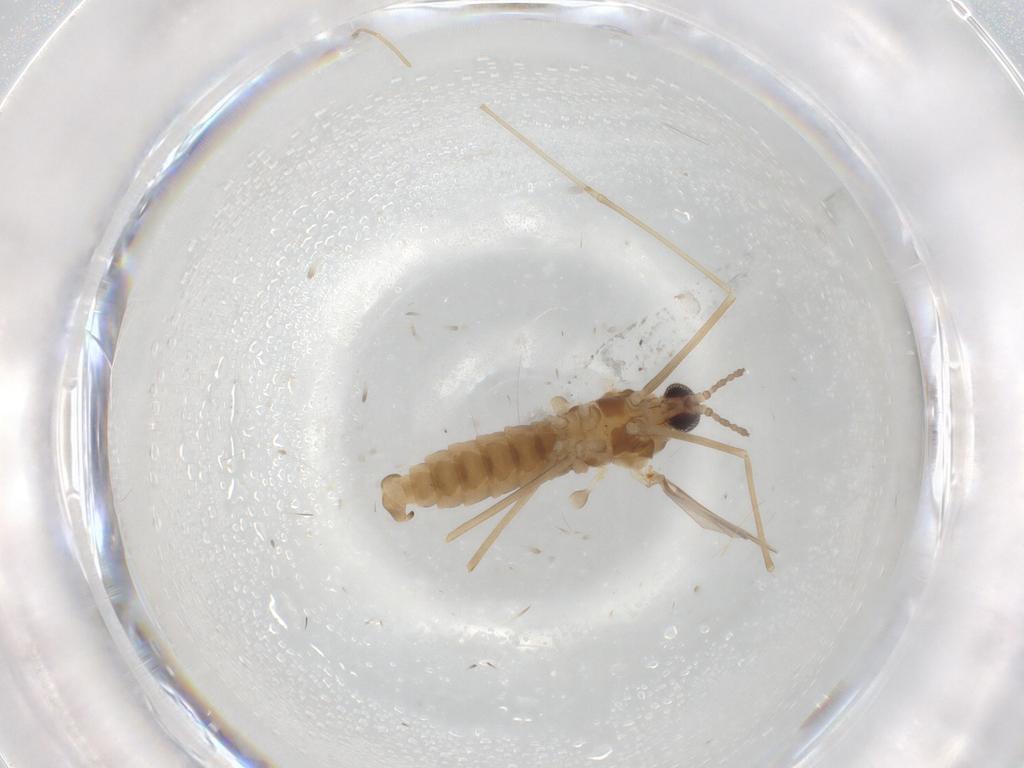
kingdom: Animalia
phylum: Arthropoda
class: Insecta
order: Diptera
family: Cecidomyiidae
